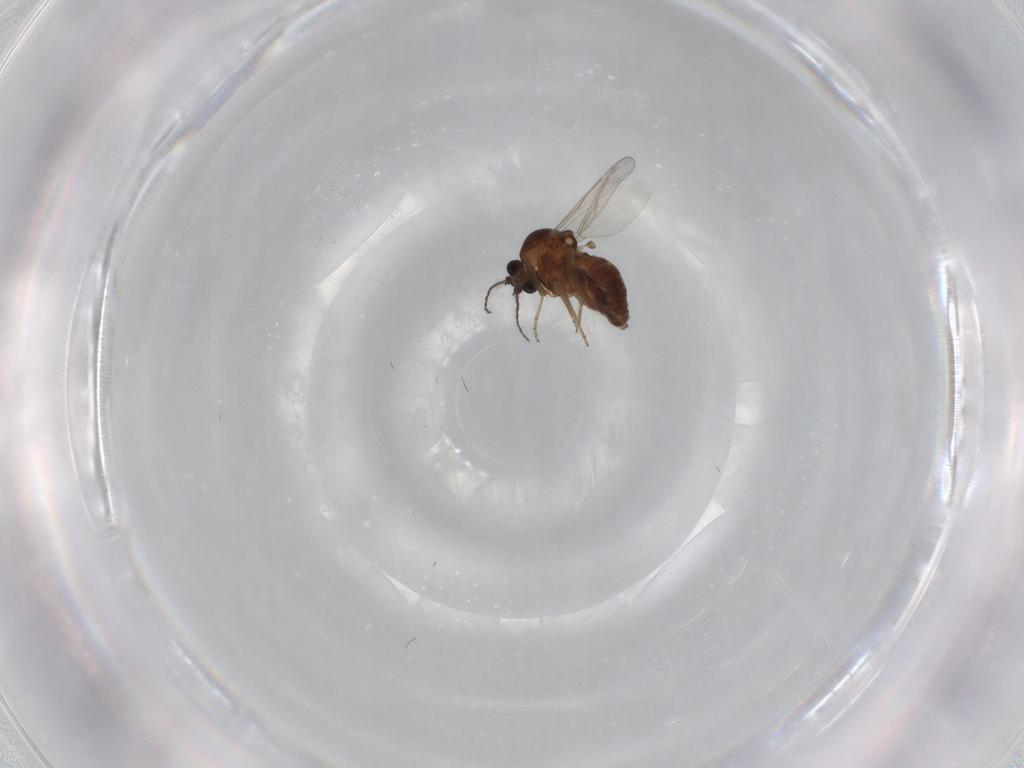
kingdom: Animalia
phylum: Arthropoda
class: Insecta
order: Diptera
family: Ceratopogonidae
